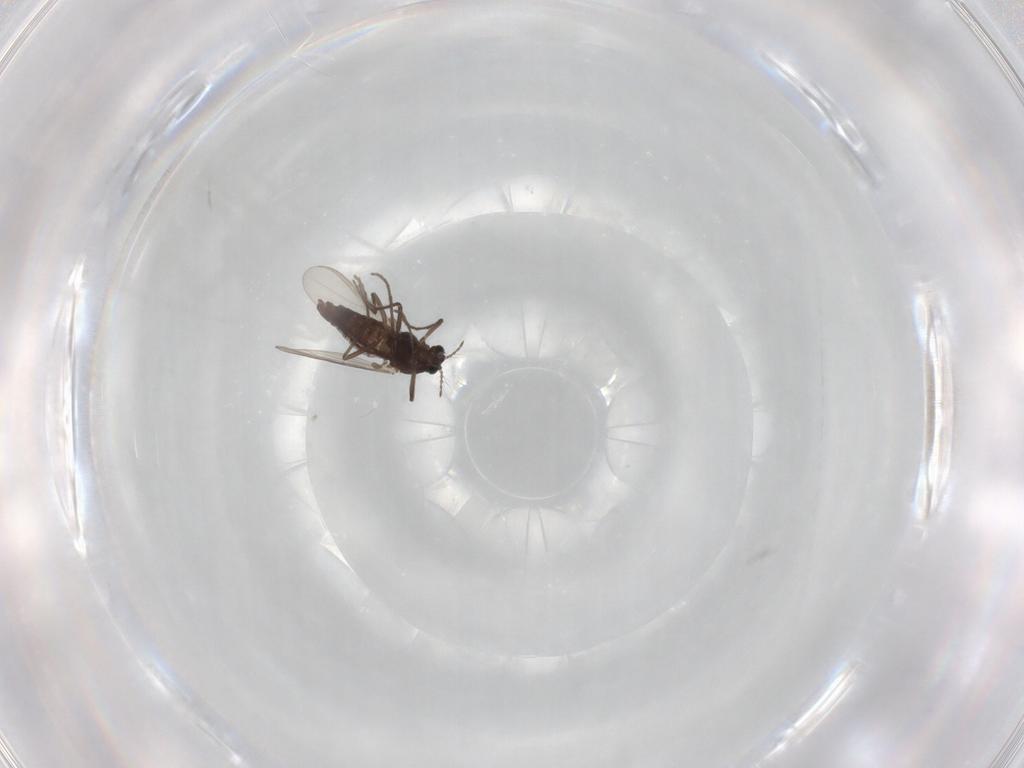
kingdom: Animalia
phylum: Arthropoda
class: Insecta
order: Diptera
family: Chironomidae
